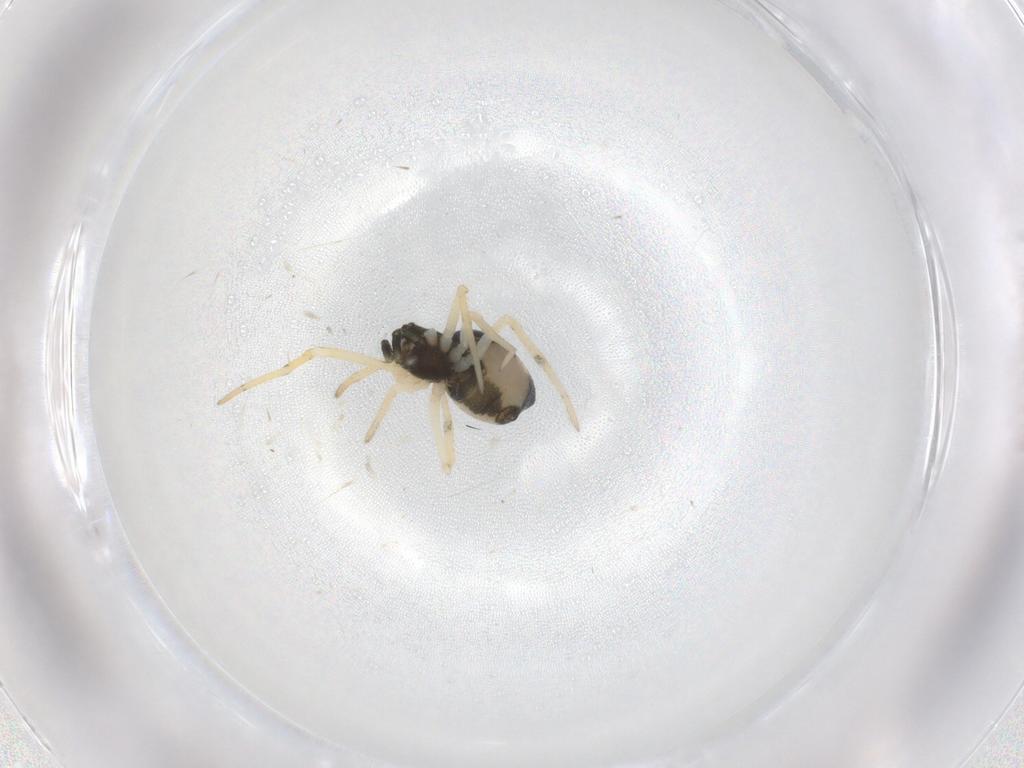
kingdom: Animalia
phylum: Arthropoda
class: Arachnida
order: Araneae
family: Theridiidae
